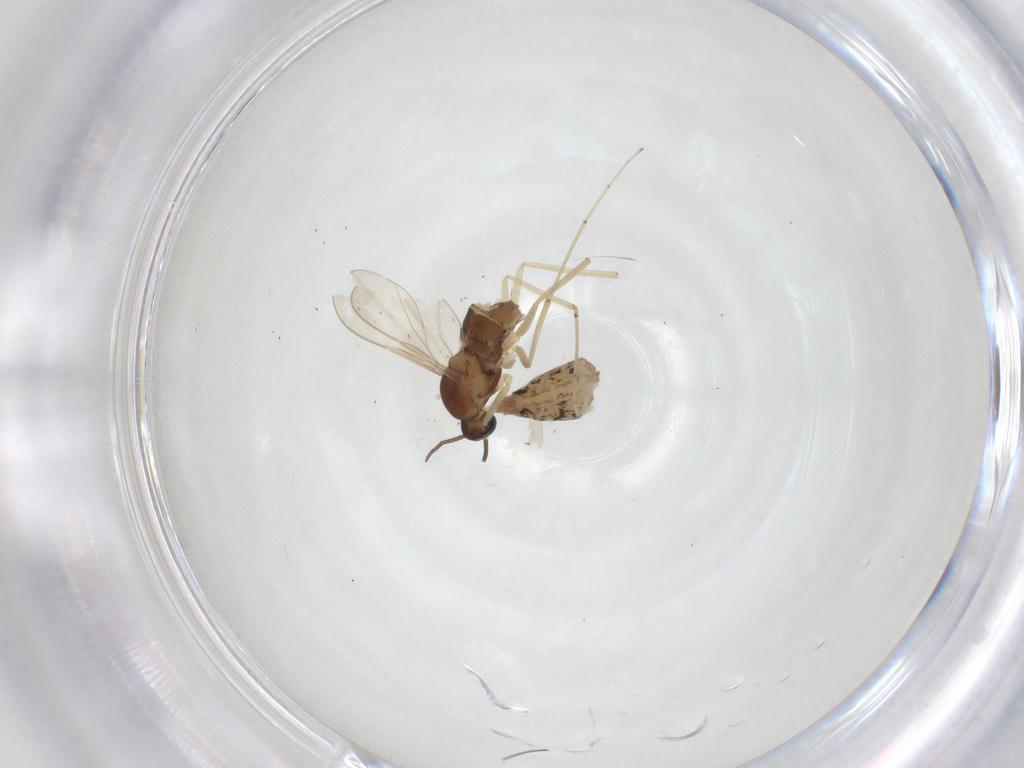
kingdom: Animalia
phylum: Arthropoda
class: Insecta
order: Diptera
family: Cecidomyiidae
